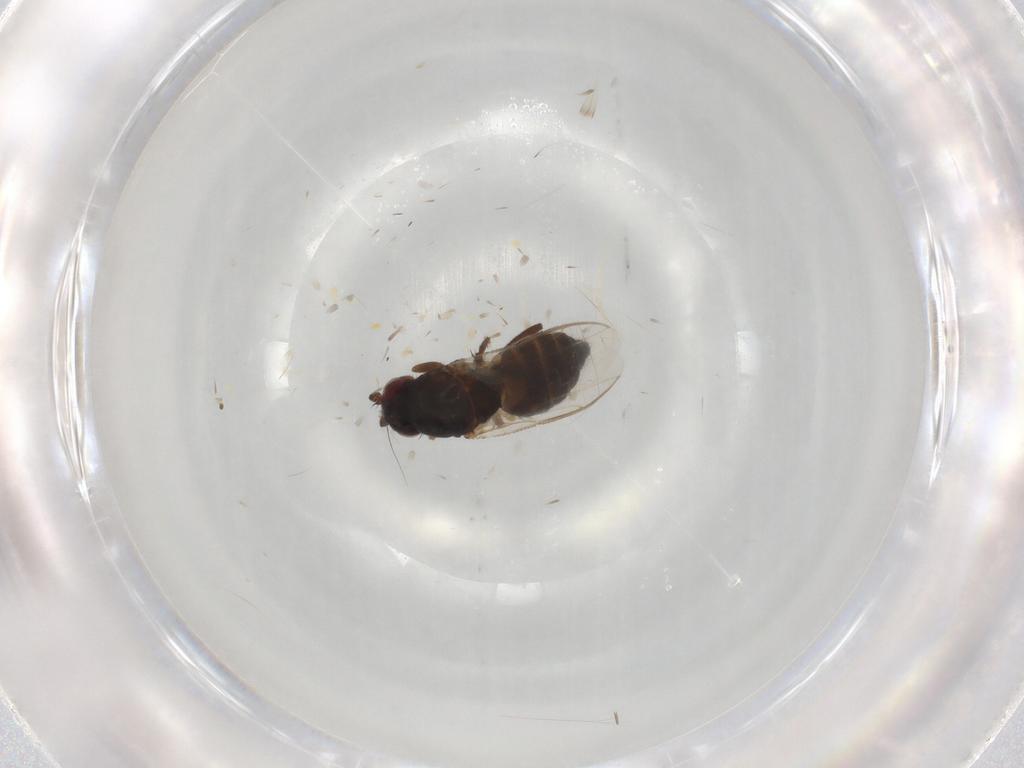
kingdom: Animalia
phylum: Arthropoda
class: Insecta
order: Diptera
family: Sphaeroceridae
